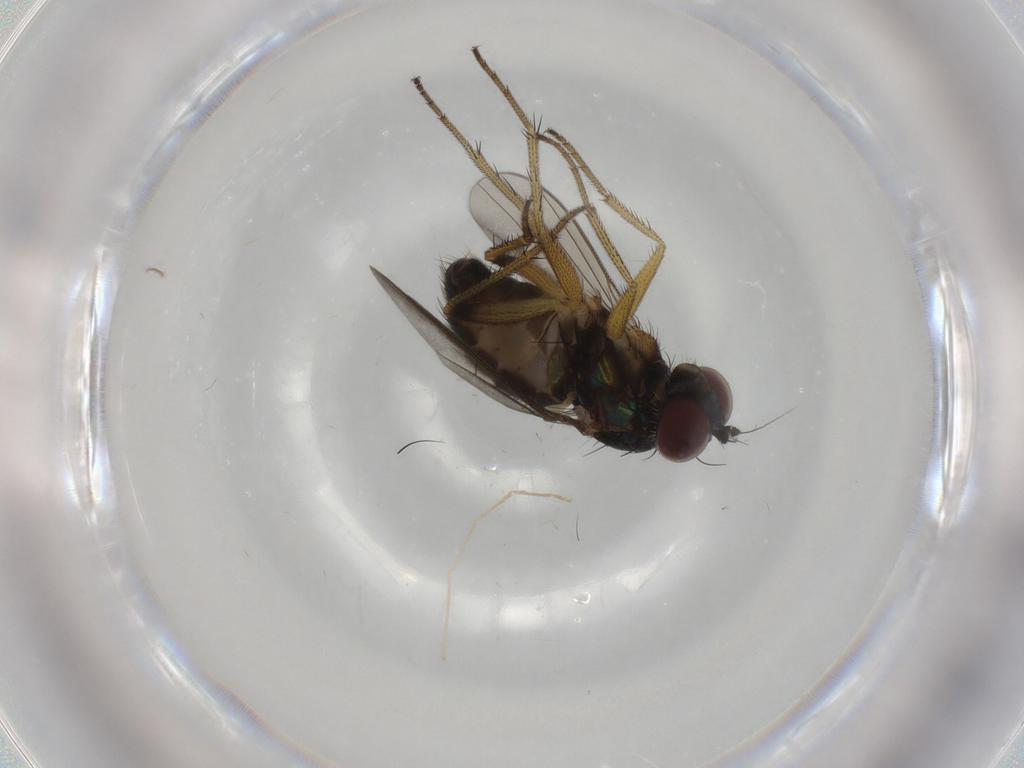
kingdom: Animalia
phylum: Arthropoda
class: Insecta
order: Diptera
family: Dolichopodidae
